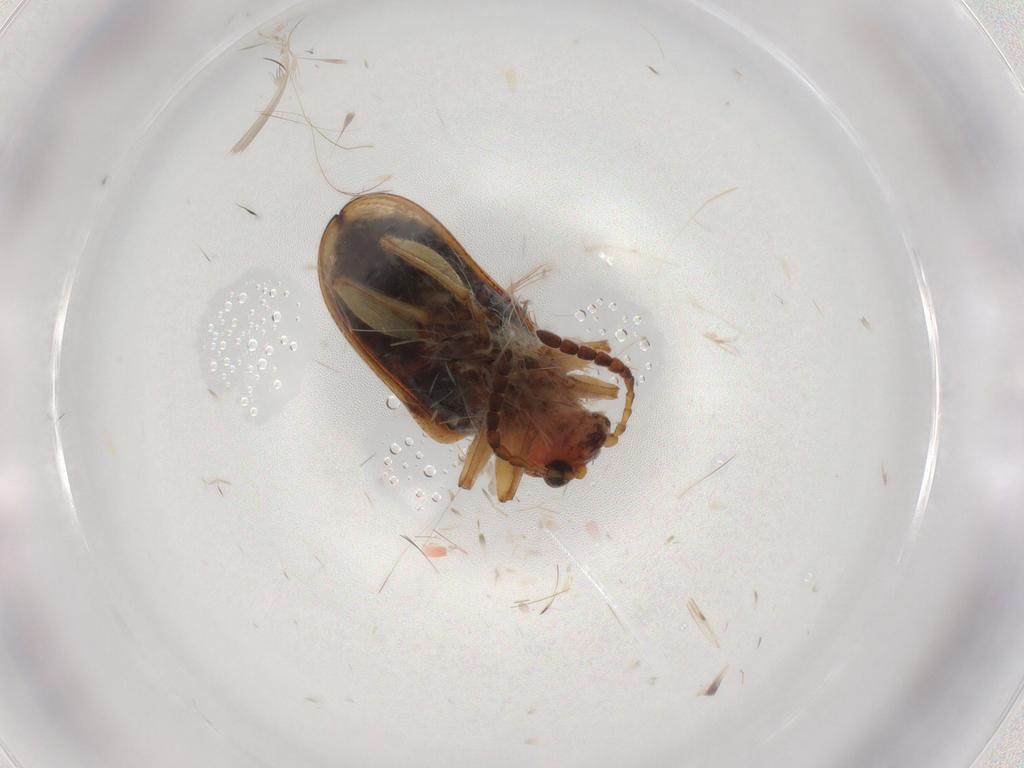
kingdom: Animalia
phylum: Arthropoda
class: Insecta
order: Coleoptera
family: Chrysomelidae
